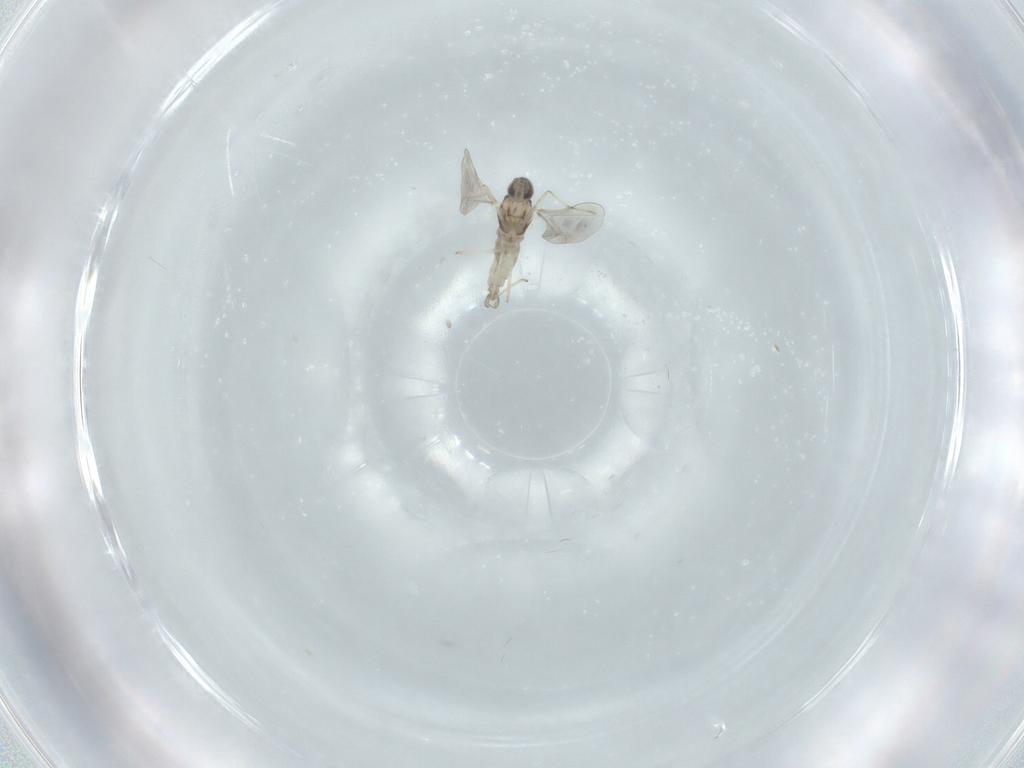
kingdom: Animalia
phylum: Arthropoda
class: Insecta
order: Diptera
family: Cecidomyiidae
